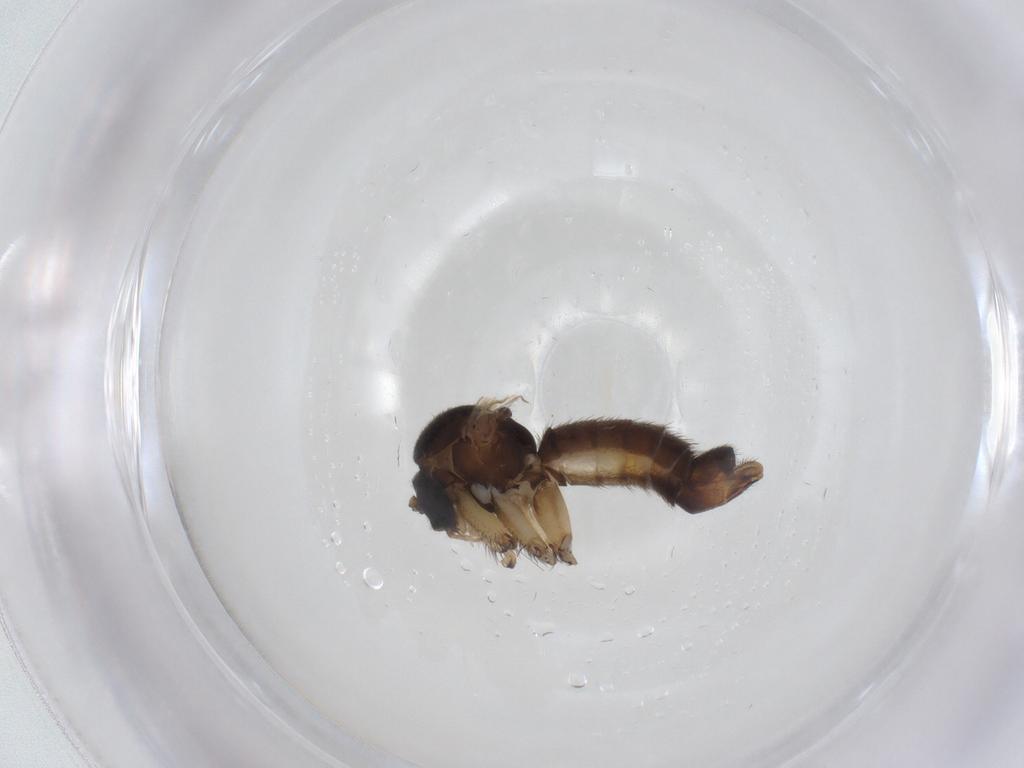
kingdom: Animalia
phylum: Arthropoda
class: Insecta
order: Diptera
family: Mycetophilidae
